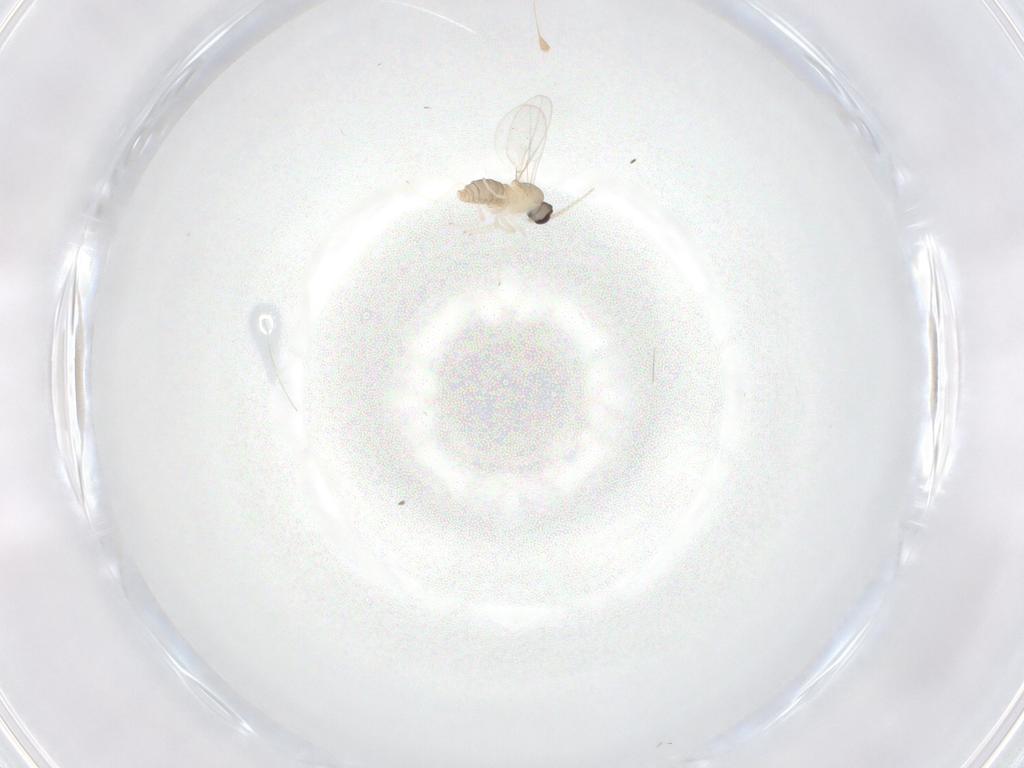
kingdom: Animalia
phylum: Arthropoda
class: Insecta
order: Diptera
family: Cecidomyiidae
